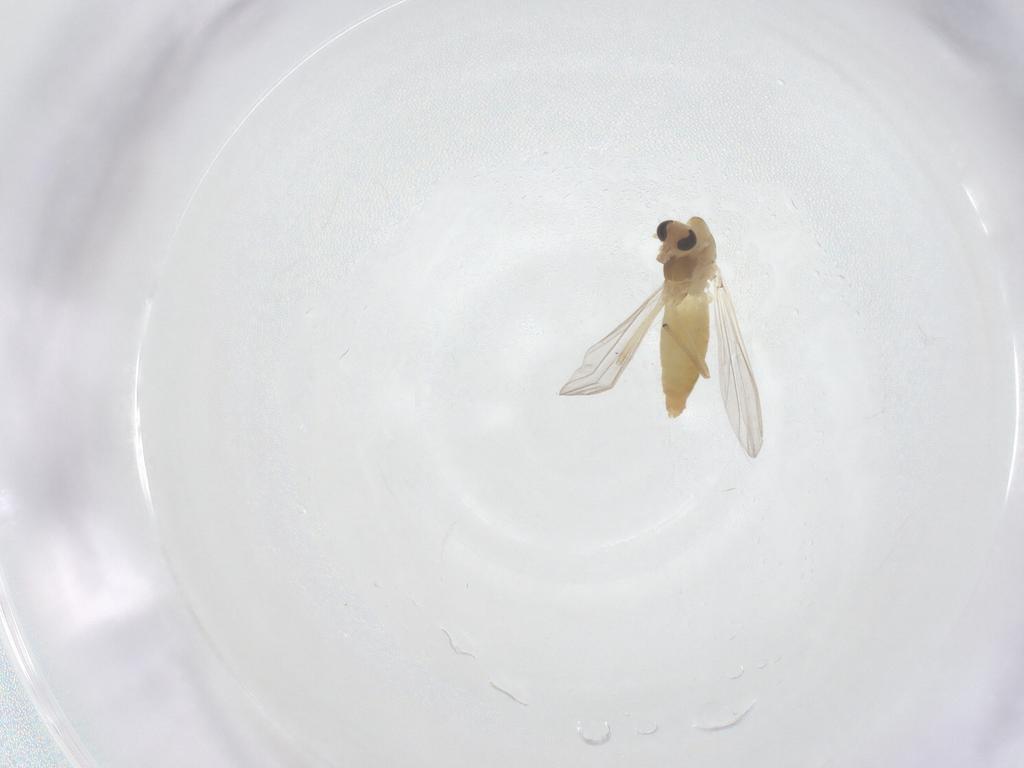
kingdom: Animalia
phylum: Arthropoda
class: Insecta
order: Diptera
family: Chironomidae
